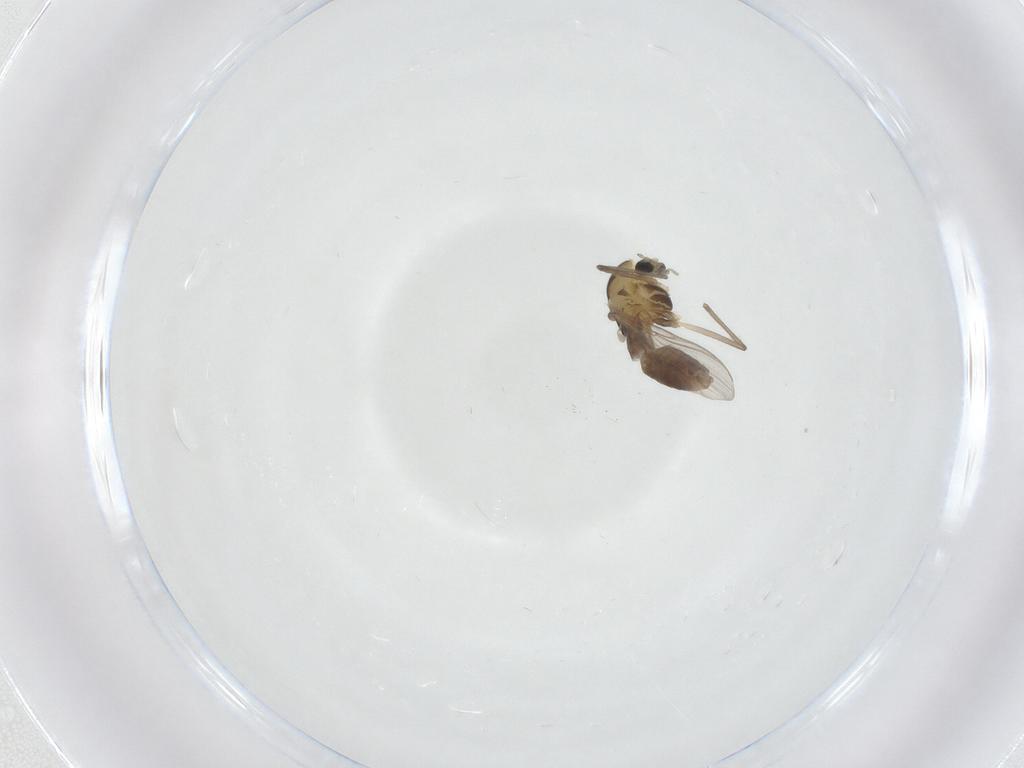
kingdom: Animalia
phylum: Arthropoda
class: Insecta
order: Diptera
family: Chironomidae
